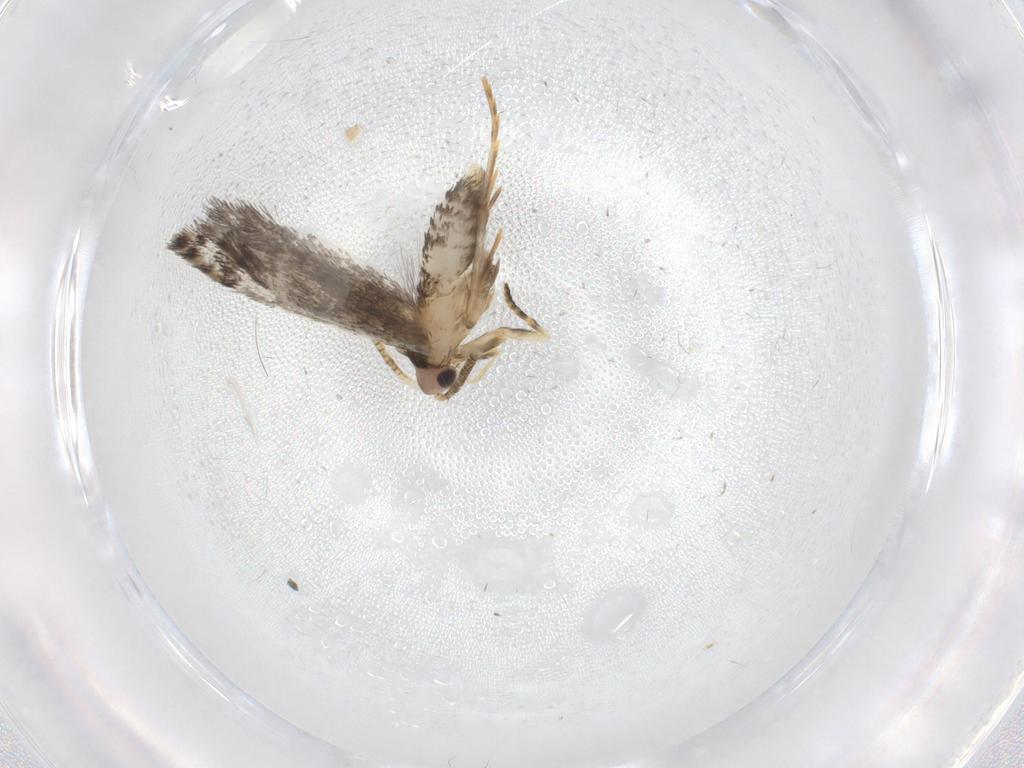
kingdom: Animalia
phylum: Arthropoda
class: Insecta
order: Lepidoptera
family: Tineidae
